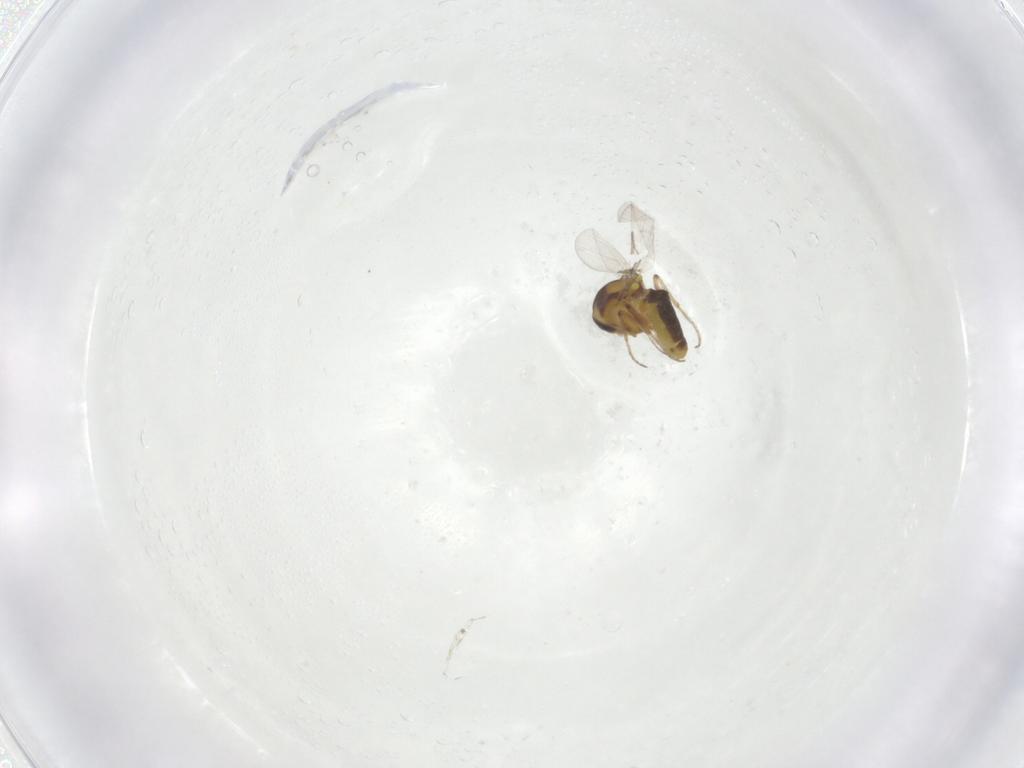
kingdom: Animalia
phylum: Arthropoda
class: Insecta
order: Diptera
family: Ceratopogonidae
